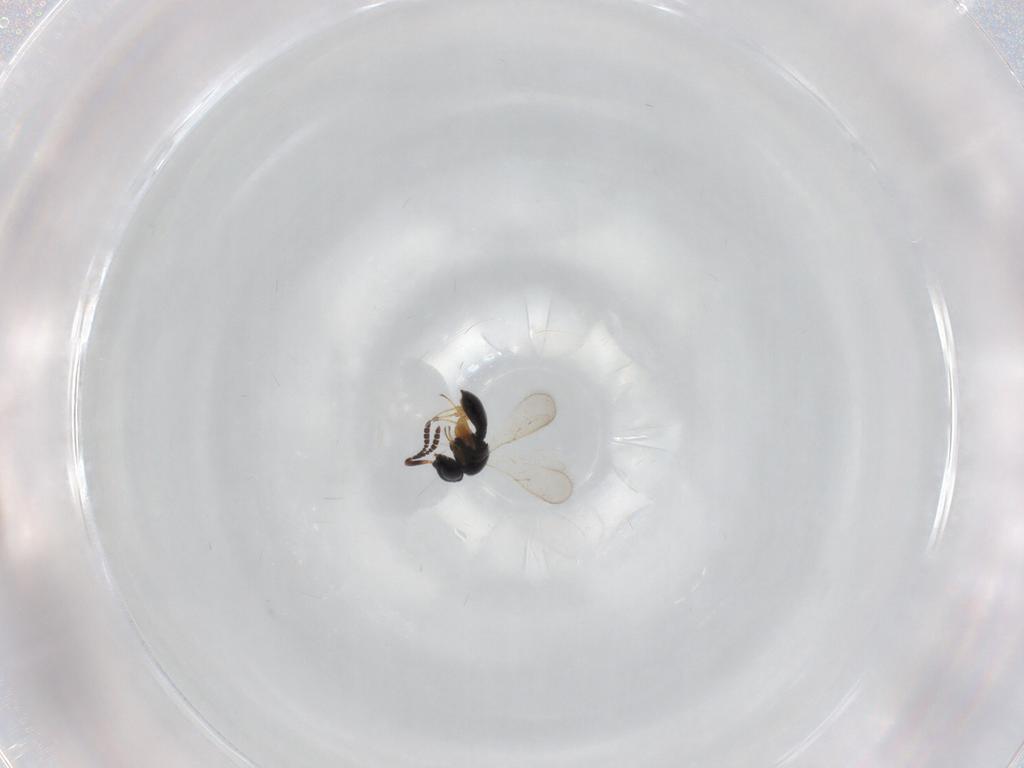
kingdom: Animalia
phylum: Arthropoda
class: Insecta
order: Hymenoptera
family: Scelionidae
